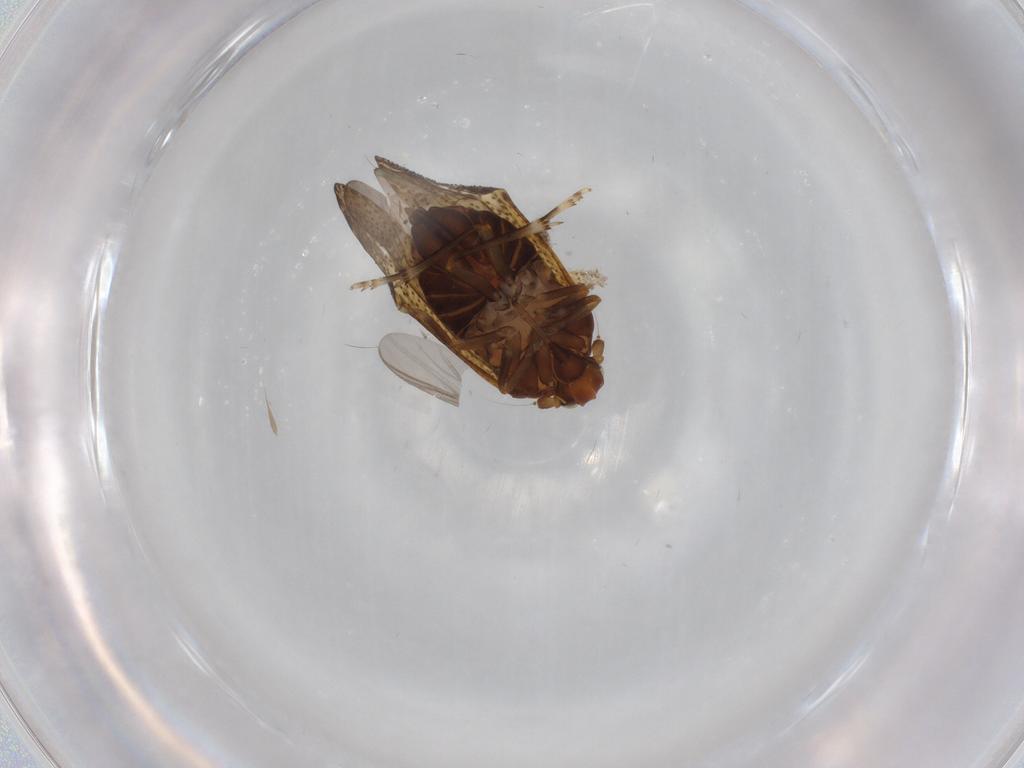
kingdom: Animalia
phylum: Arthropoda
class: Insecta
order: Hemiptera
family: Delphacidae
